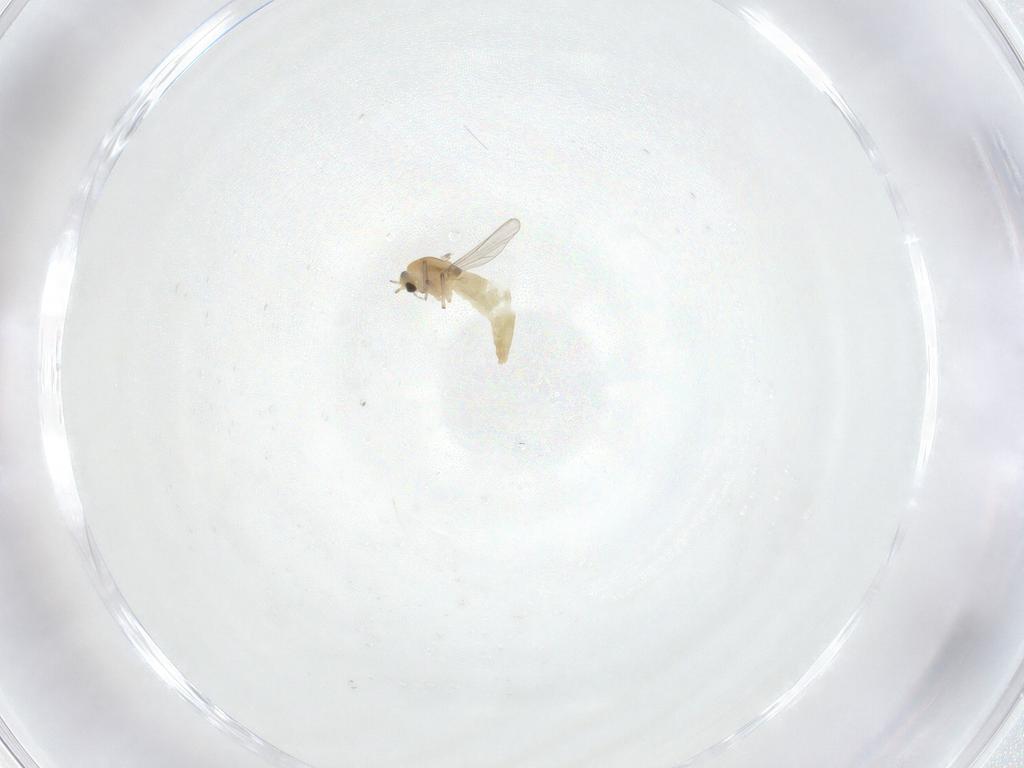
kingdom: Animalia
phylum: Arthropoda
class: Insecta
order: Diptera
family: Chironomidae
